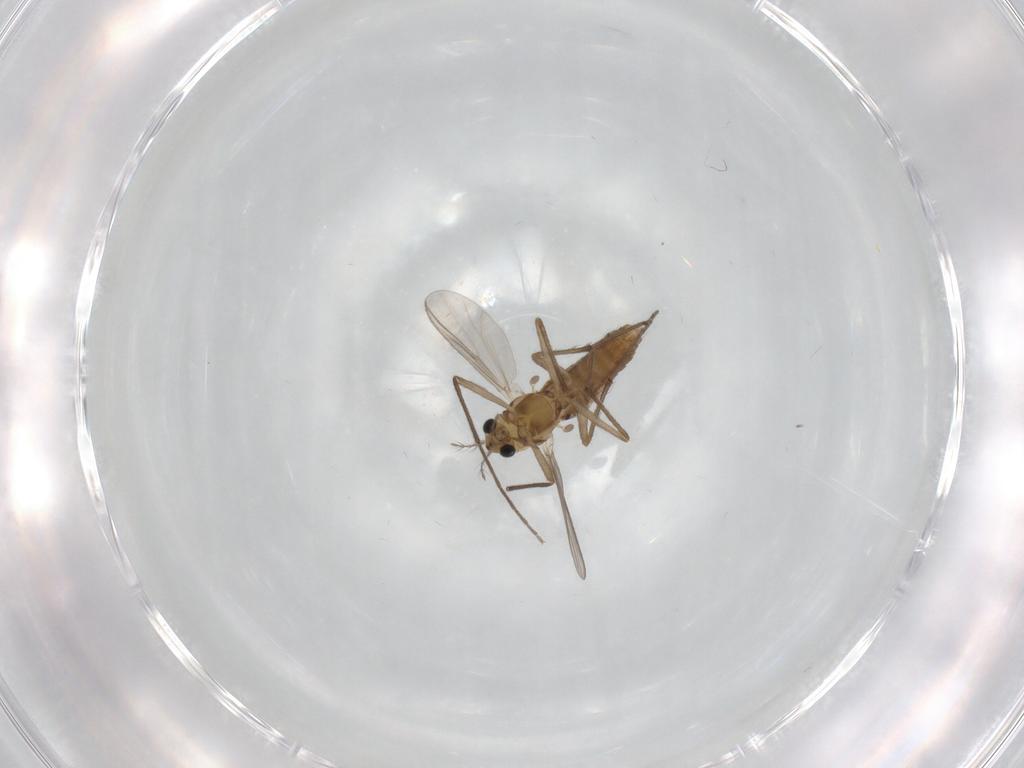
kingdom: Animalia
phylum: Arthropoda
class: Insecta
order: Diptera
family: Chironomidae
